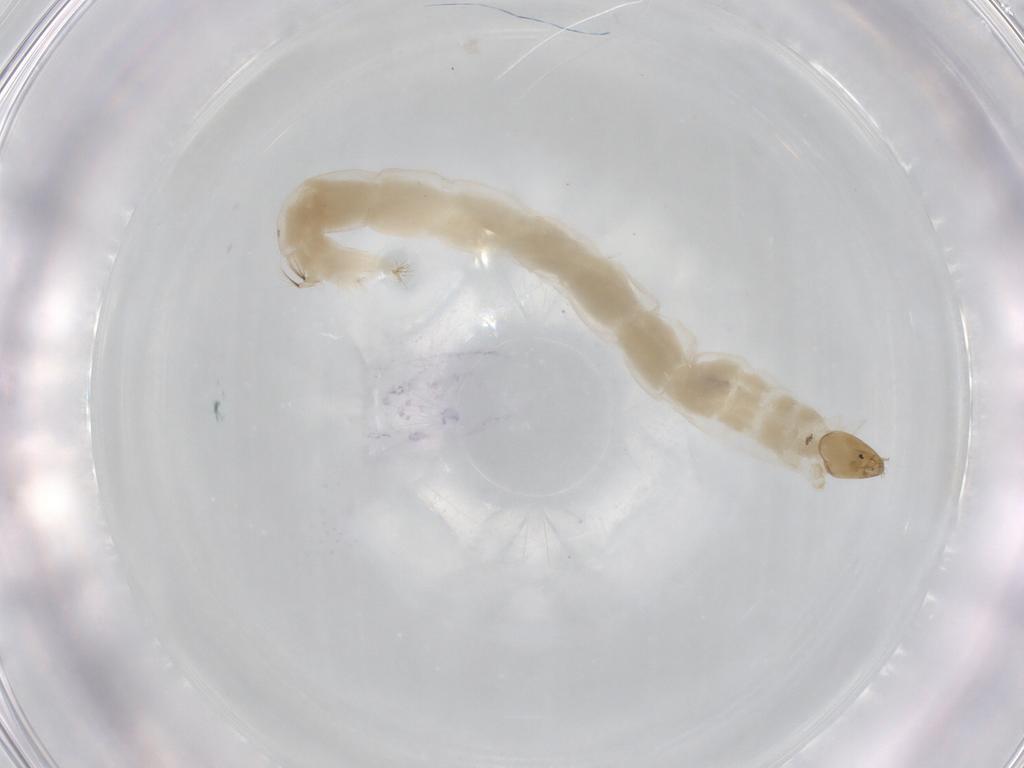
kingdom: Animalia
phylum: Arthropoda
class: Insecta
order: Diptera
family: Chironomidae
